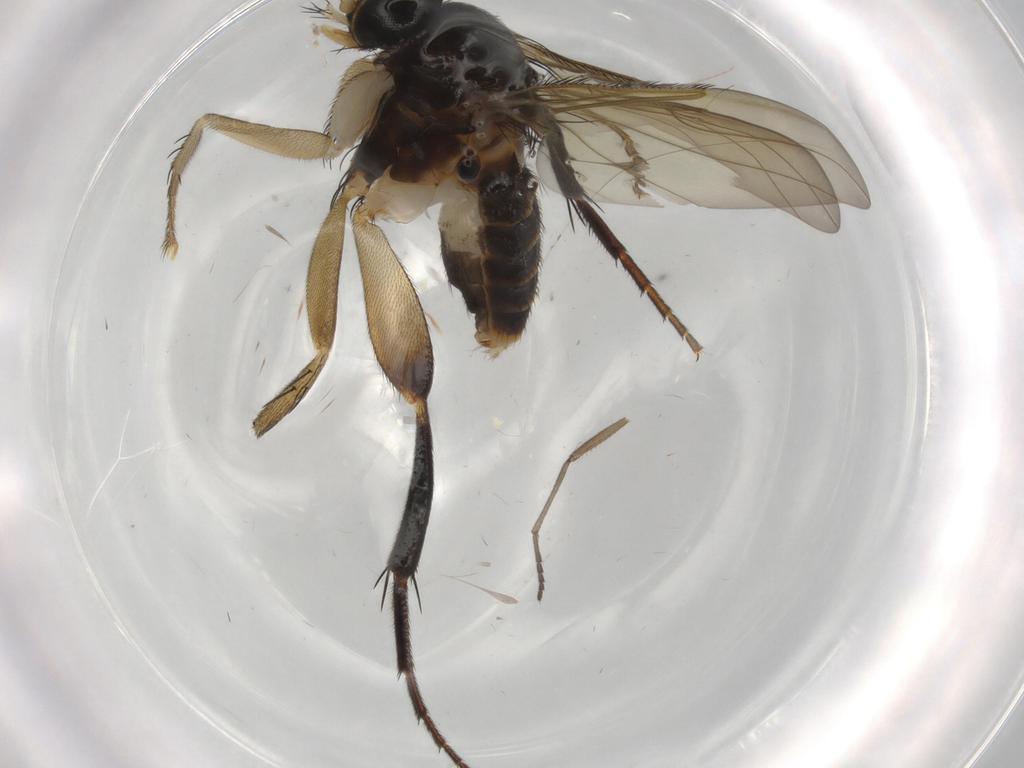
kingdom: Animalia
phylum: Arthropoda
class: Insecta
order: Diptera
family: Phoridae
